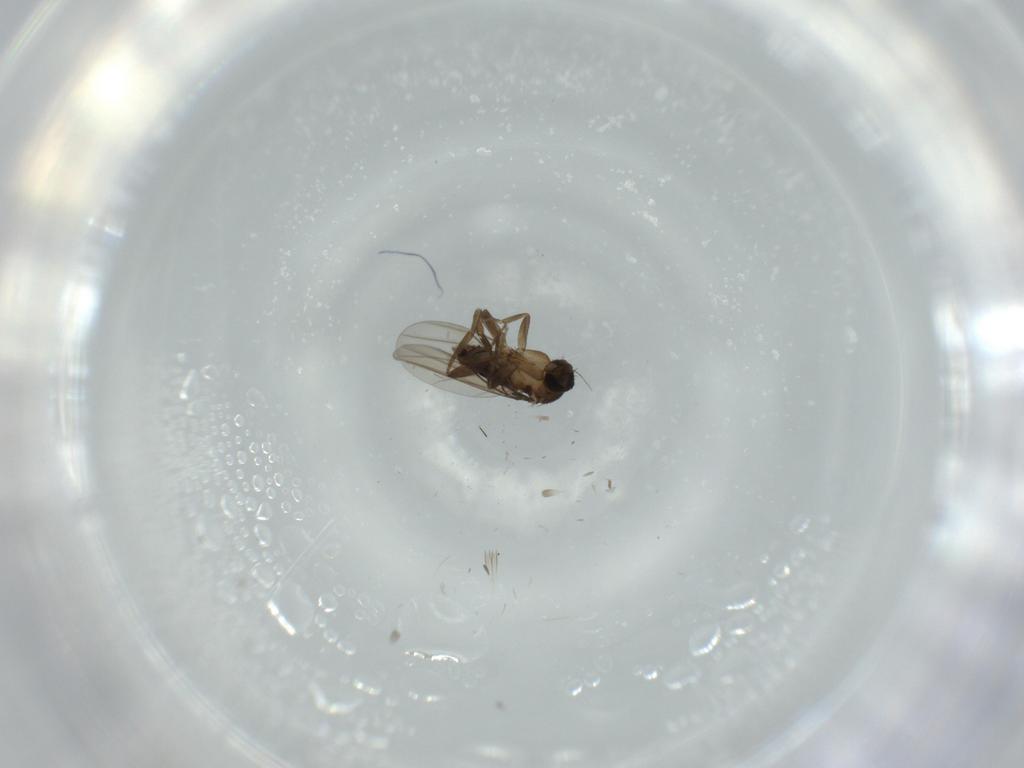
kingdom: Animalia
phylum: Arthropoda
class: Insecta
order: Diptera
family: Phoridae
